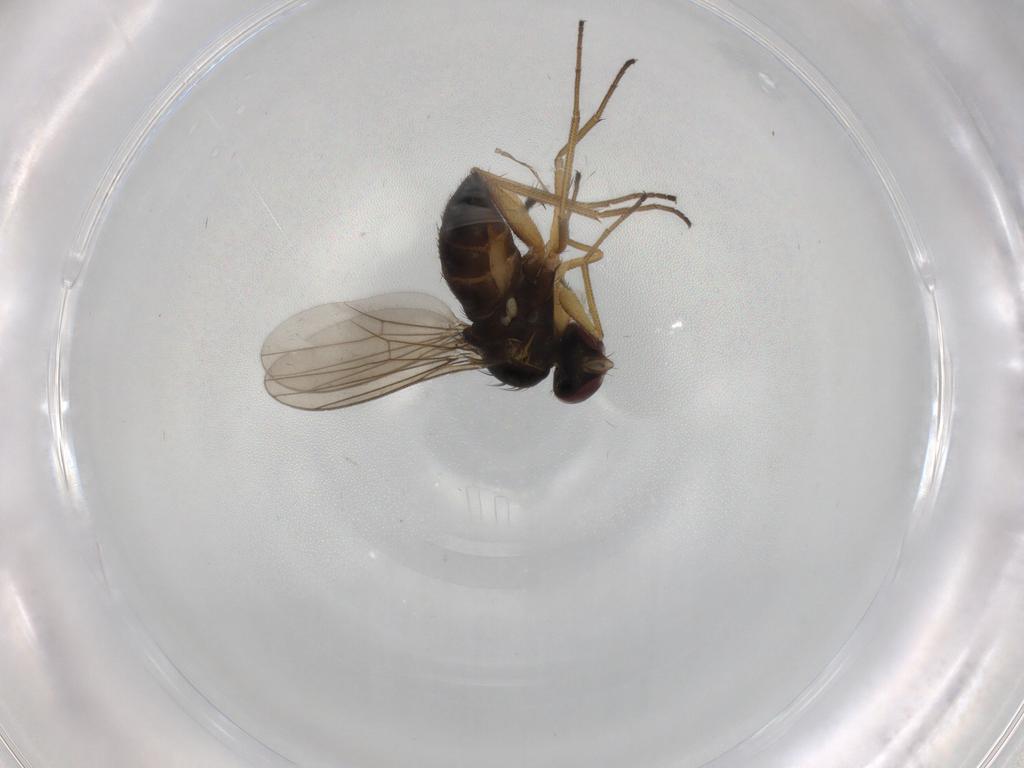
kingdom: Animalia
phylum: Arthropoda
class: Insecta
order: Diptera
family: Dolichopodidae
